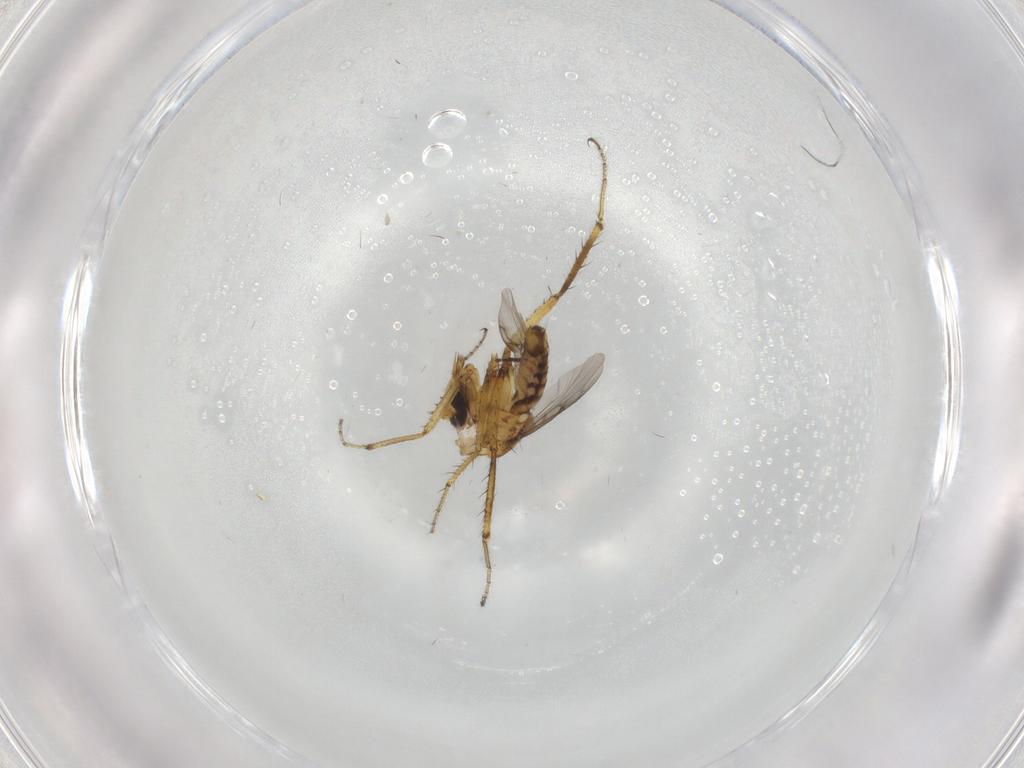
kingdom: Animalia
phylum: Arthropoda
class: Insecta
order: Diptera
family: Ceratopogonidae
